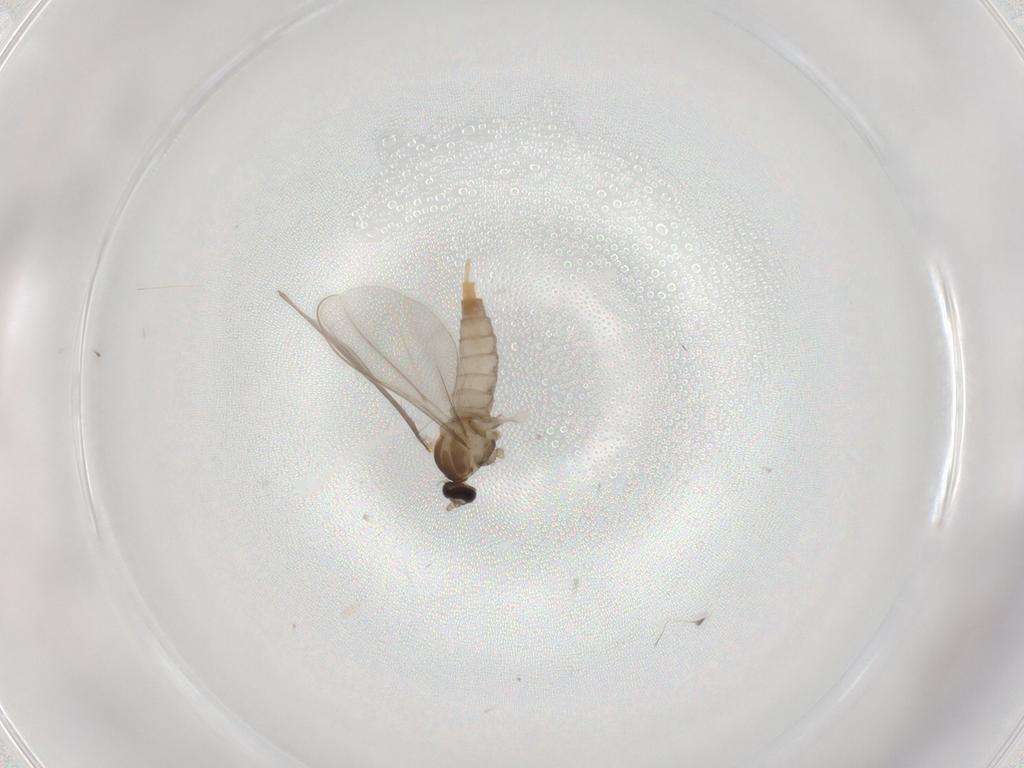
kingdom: Animalia
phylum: Arthropoda
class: Insecta
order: Diptera
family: Cecidomyiidae
